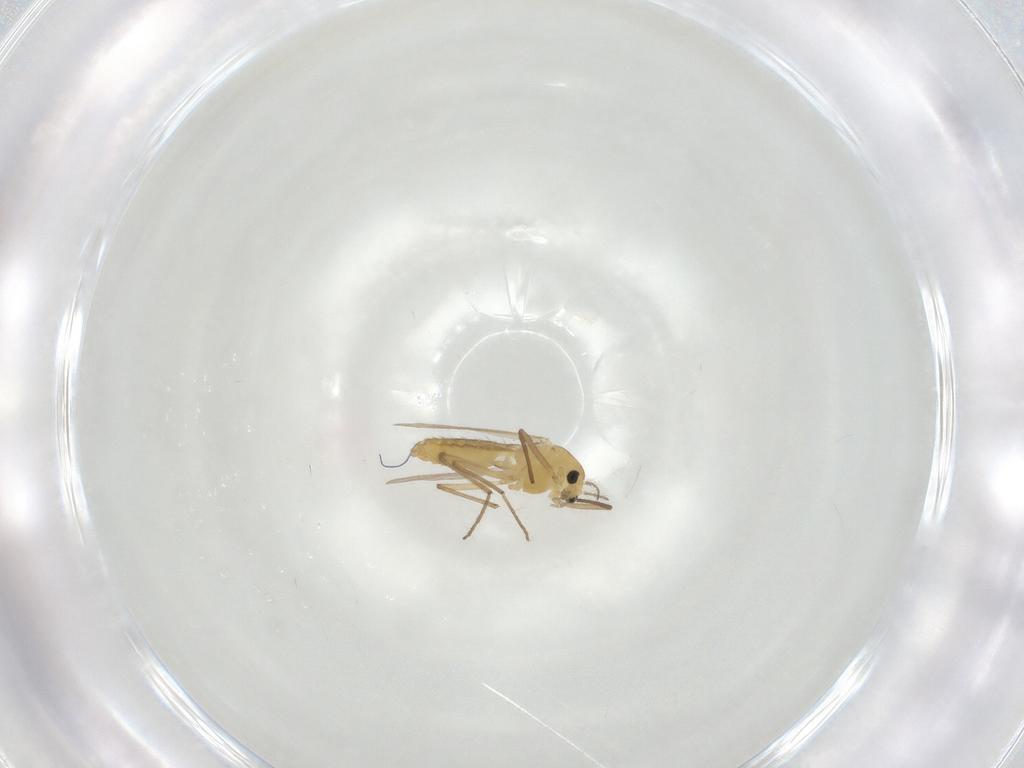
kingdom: Animalia
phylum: Arthropoda
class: Insecta
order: Diptera
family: Chironomidae
